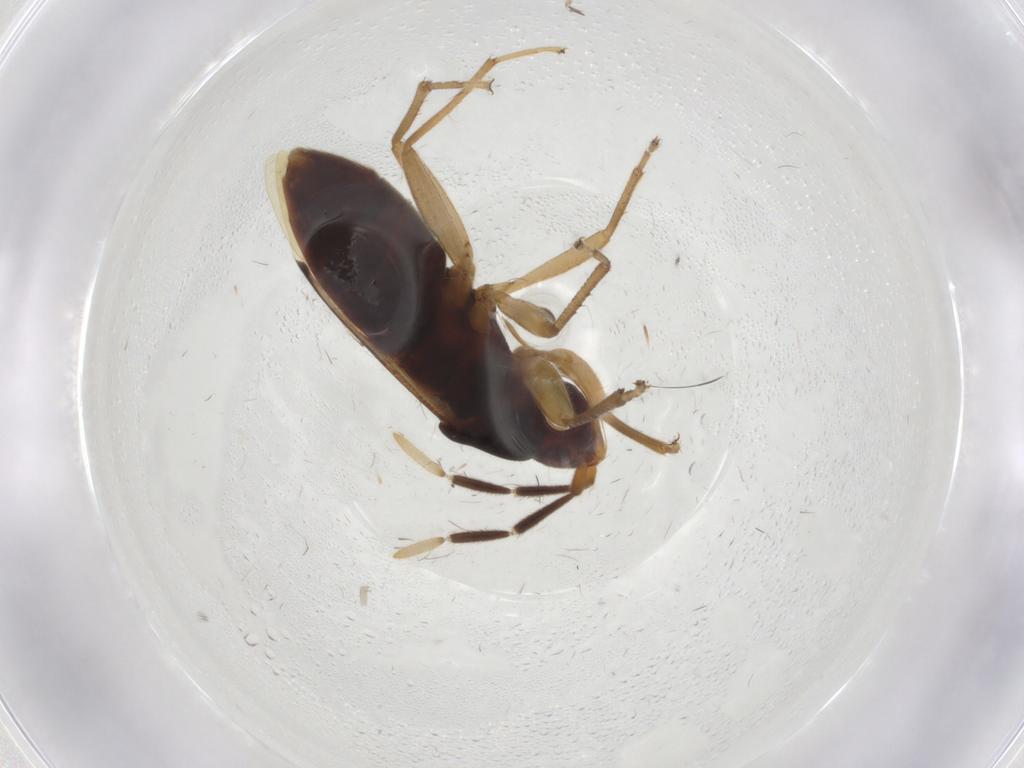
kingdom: Animalia
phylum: Arthropoda
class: Insecta
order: Hemiptera
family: Rhyparochromidae
